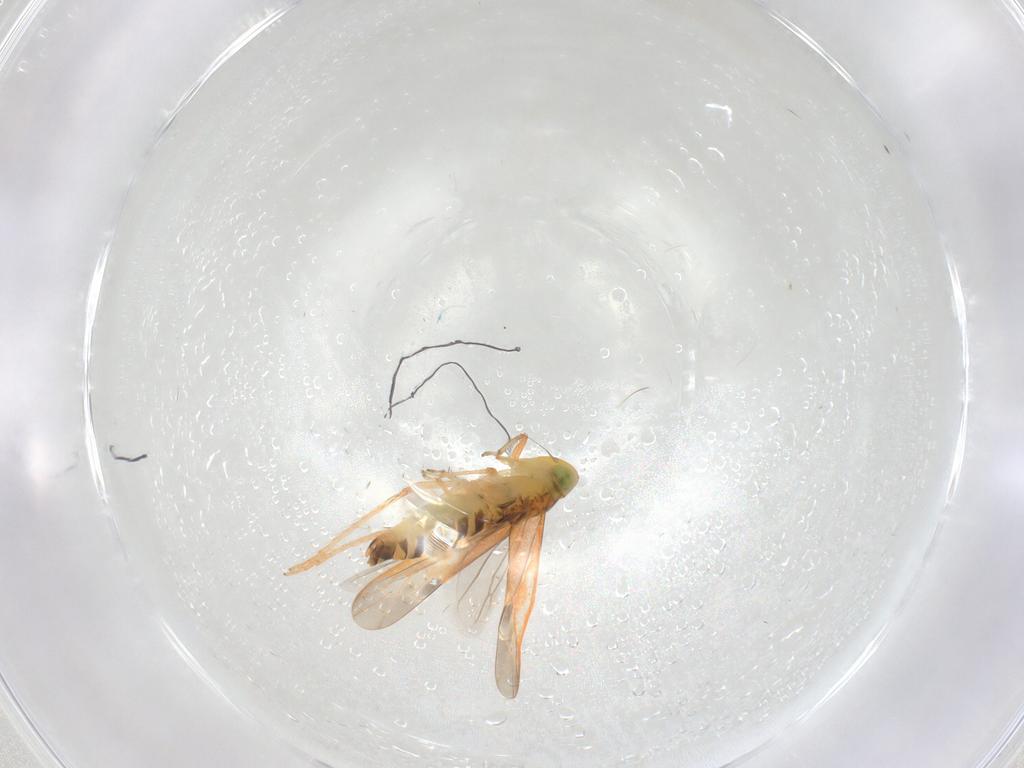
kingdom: Animalia
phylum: Arthropoda
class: Insecta
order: Hemiptera
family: Cicadellidae
